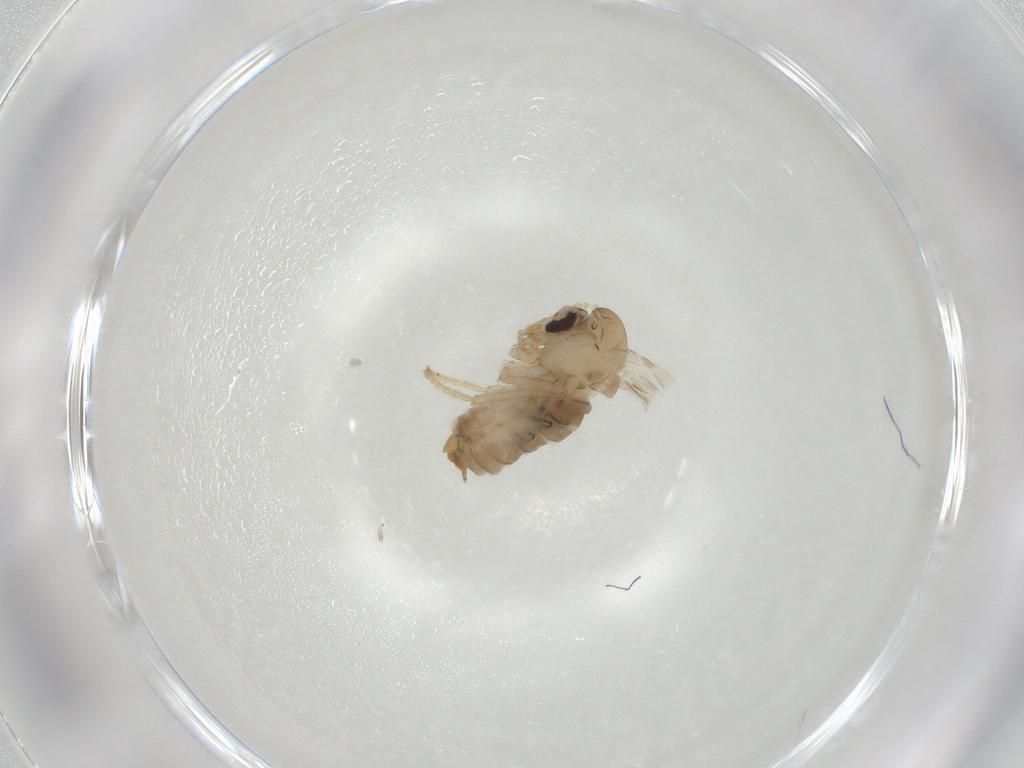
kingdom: Animalia
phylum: Arthropoda
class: Insecta
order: Diptera
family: Psychodidae
